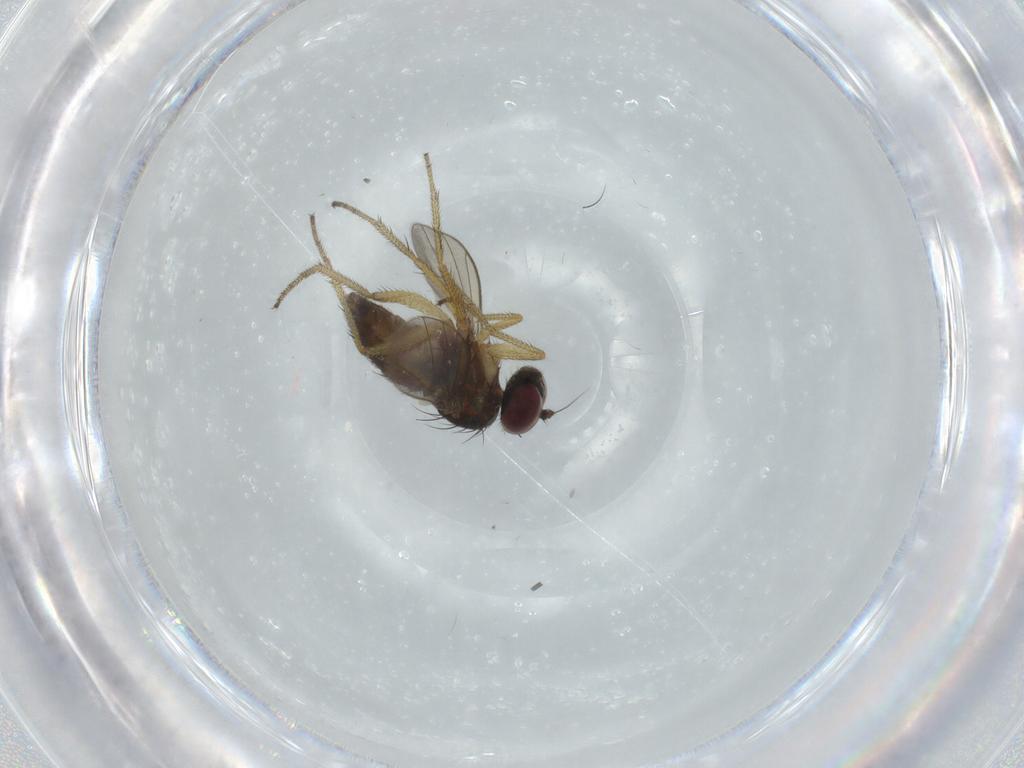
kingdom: Animalia
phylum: Arthropoda
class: Insecta
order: Diptera
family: Dolichopodidae
